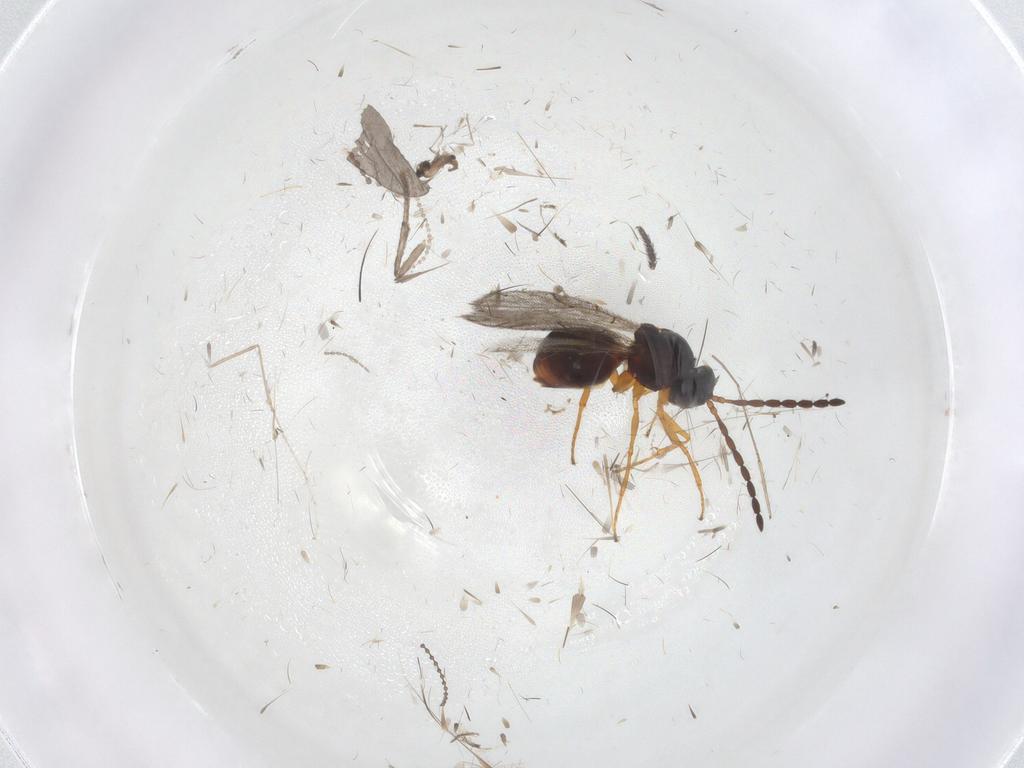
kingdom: Animalia
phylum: Arthropoda
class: Insecta
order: Hymenoptera
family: Figitidae
